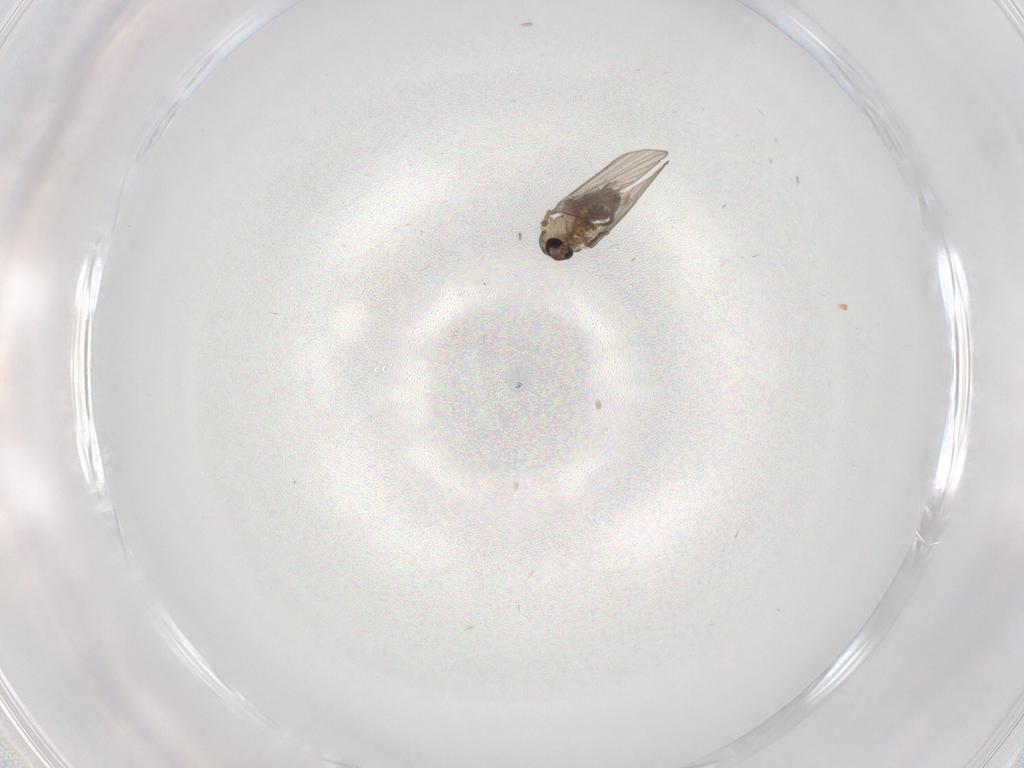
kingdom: Animalia
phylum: Arthropoda
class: Insecta
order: Diptera
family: Psychodidae
